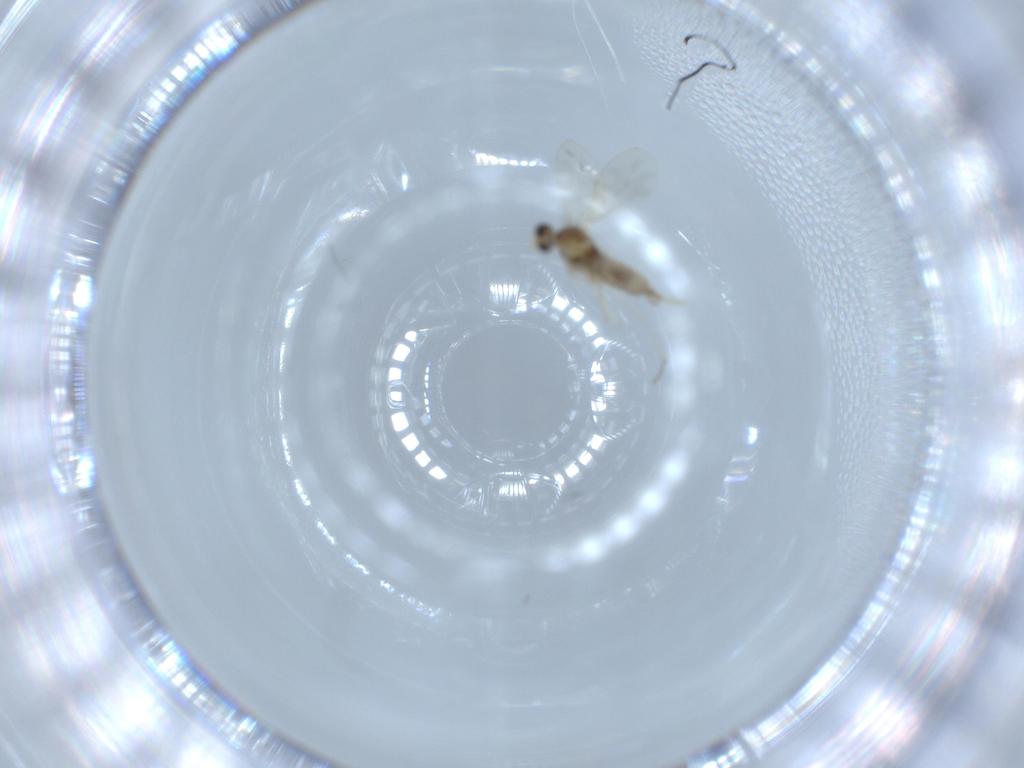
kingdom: Animalia
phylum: Arthropoda
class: Insecta
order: Diptera
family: Cecidomyiidae
